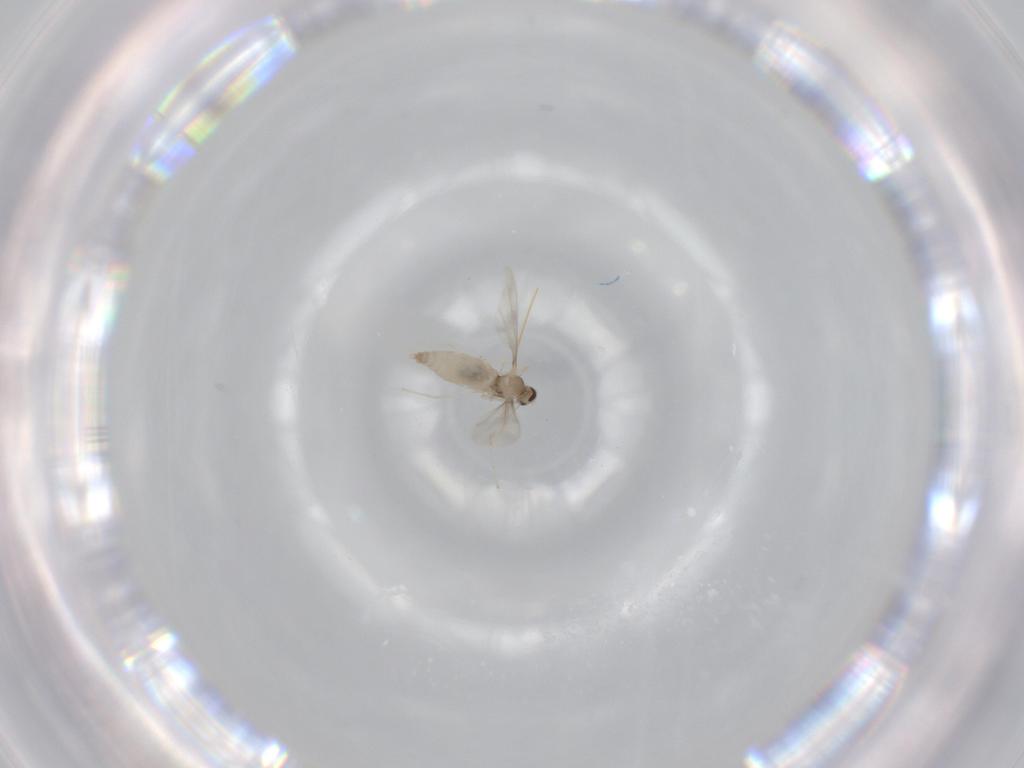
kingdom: Animalia
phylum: Arthropoda
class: Insecta
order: Diptera
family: Cecidomyiidae
